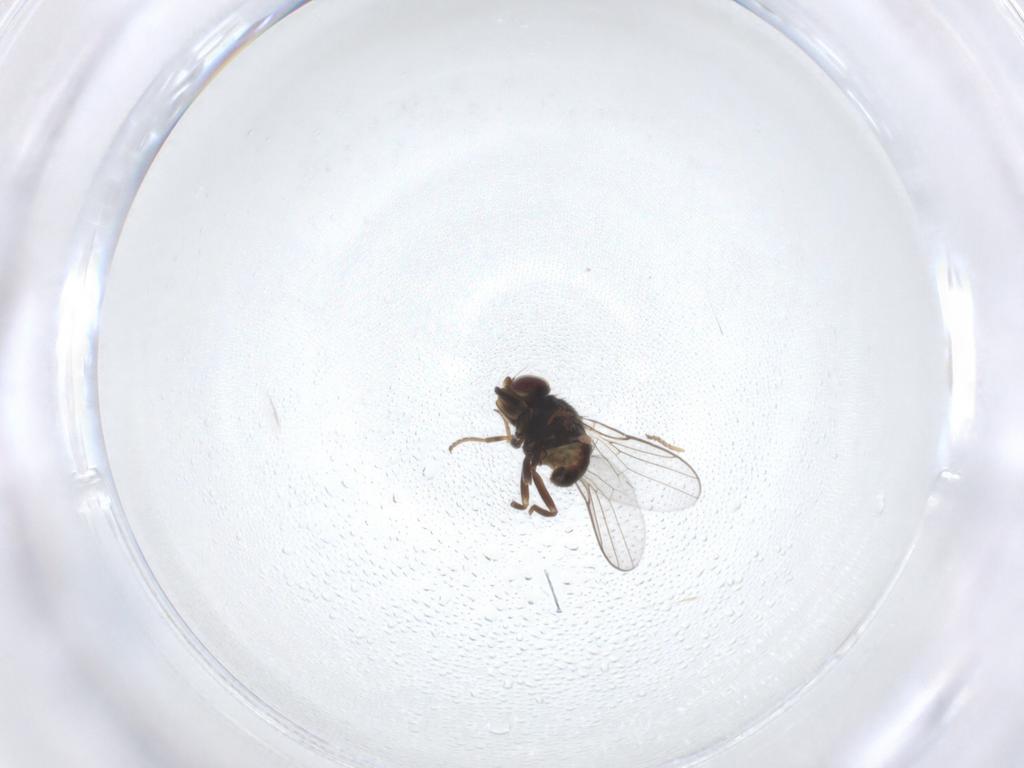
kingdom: Animalia
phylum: Arthropoda
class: Insecta
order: Diptera
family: Chloropidae
